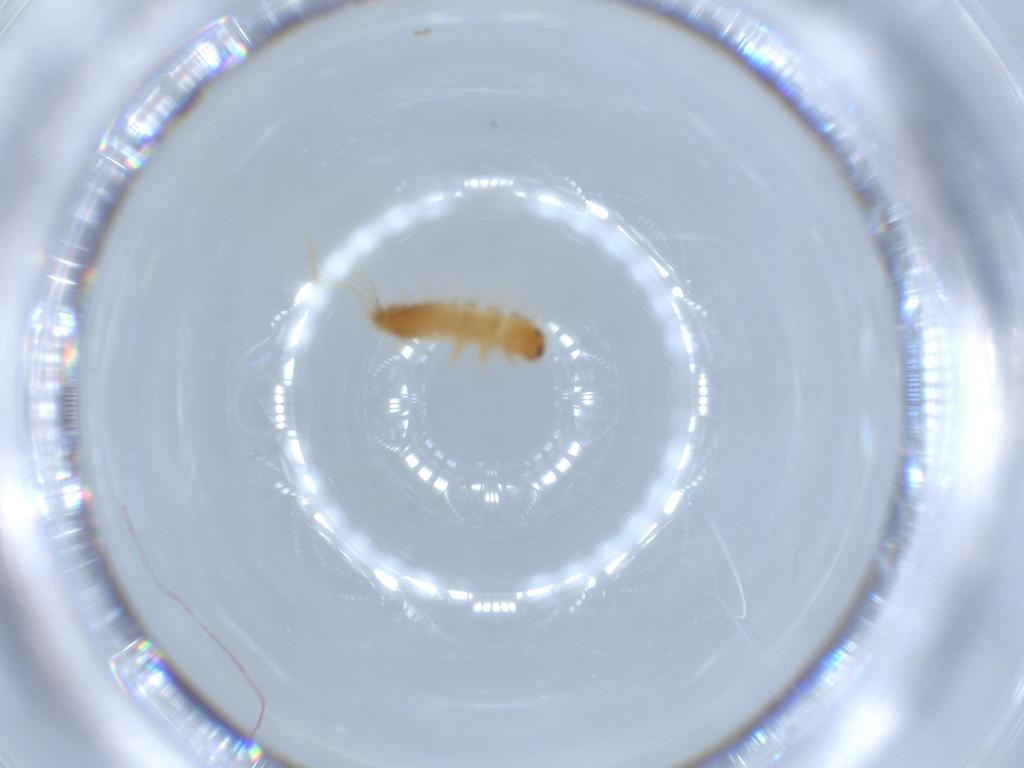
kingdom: Animalia
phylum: Arthropoda
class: Insecta
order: Coleoptera
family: Dermestidae
